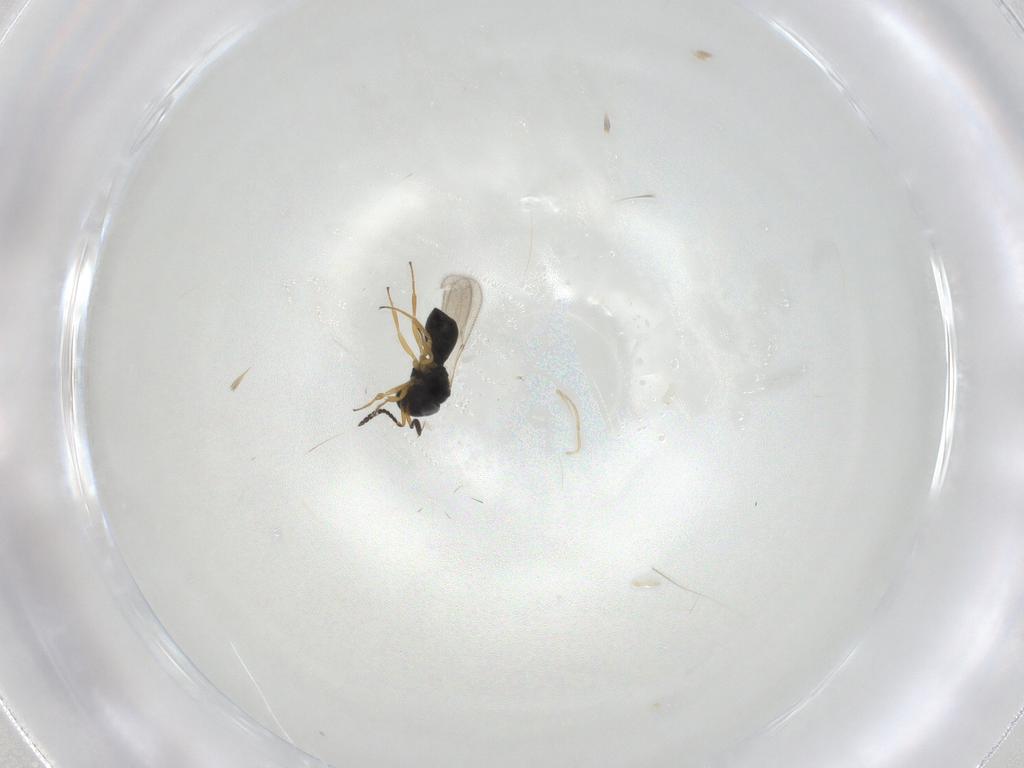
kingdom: Animalia
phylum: Arthropoda
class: Insecta
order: Hymenoptera
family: Scelionidae
